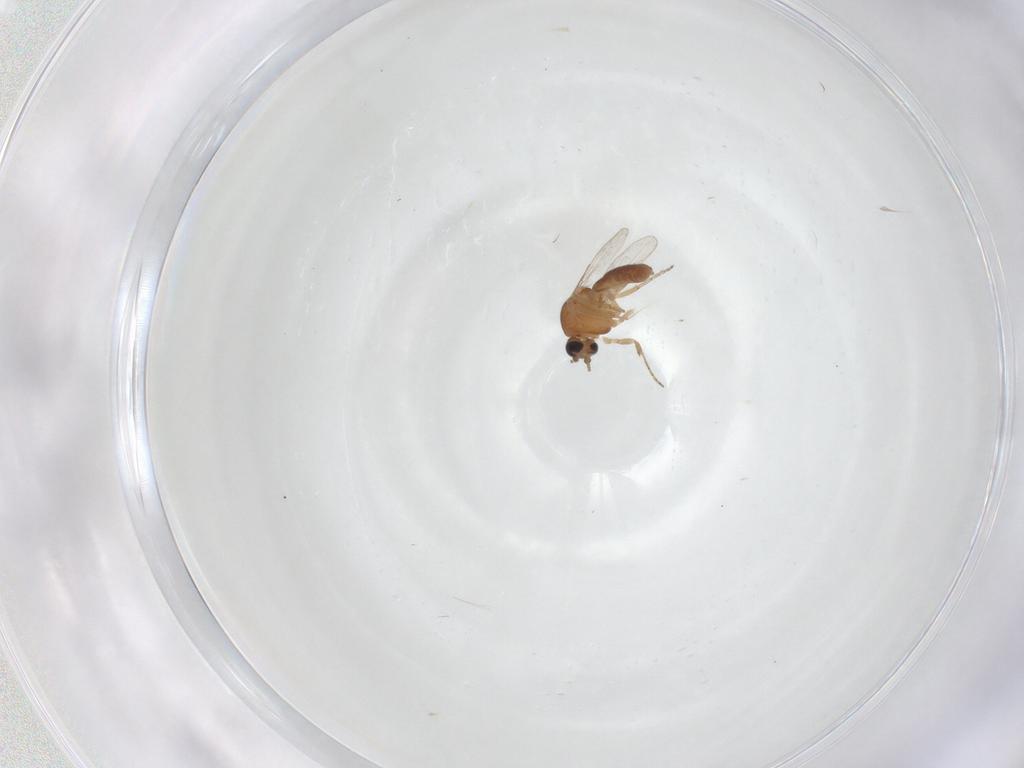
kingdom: Animalia
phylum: Arthropoda
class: Insecta
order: Diptera
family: Ceratopogonidae
